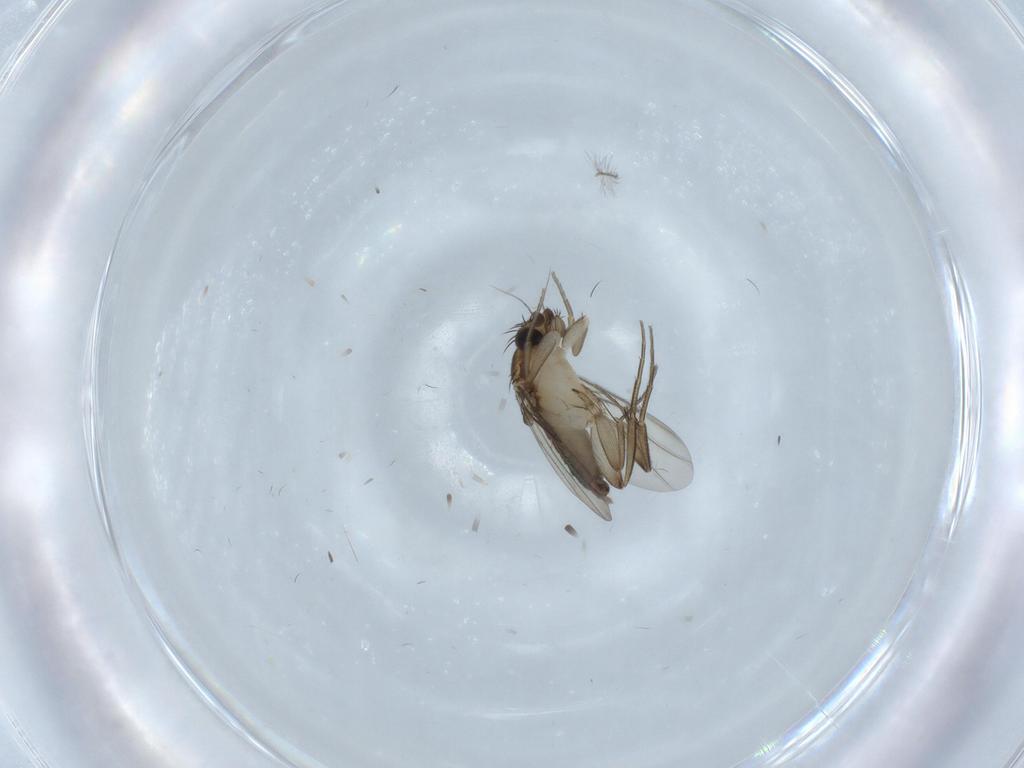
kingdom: Animalia
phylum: Arthropoda
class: Insecta
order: Diptera
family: Phoridae
